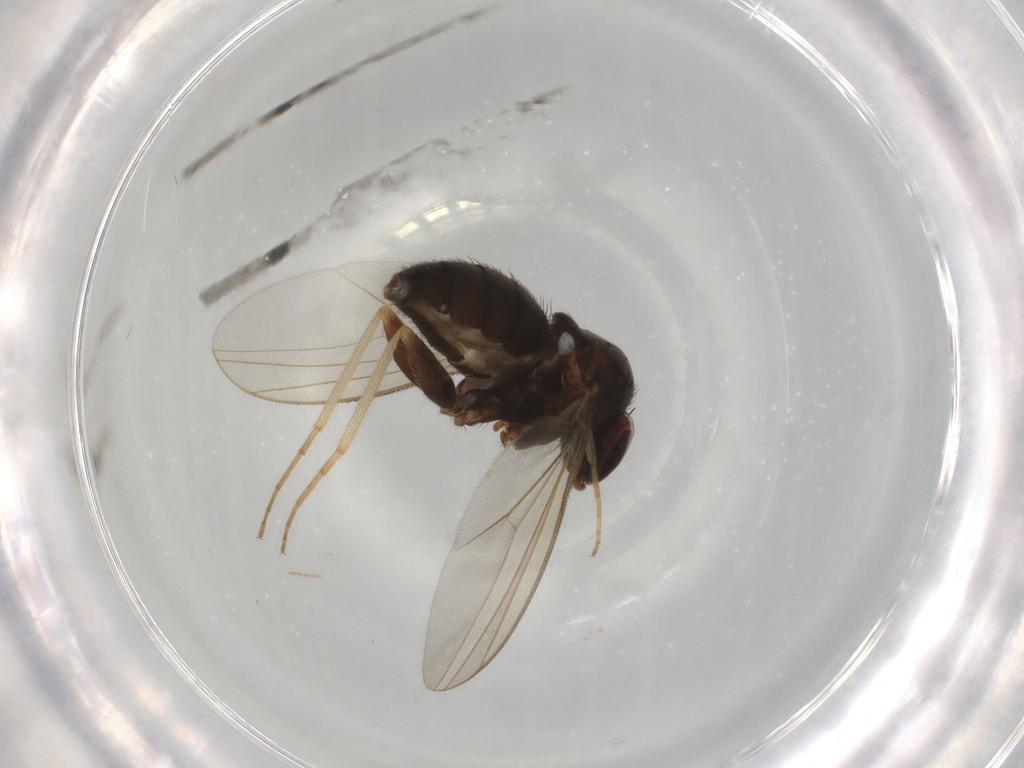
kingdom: Animalia
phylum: Arthropoda
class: Insecta
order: Diptera
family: Dolichopodidae
